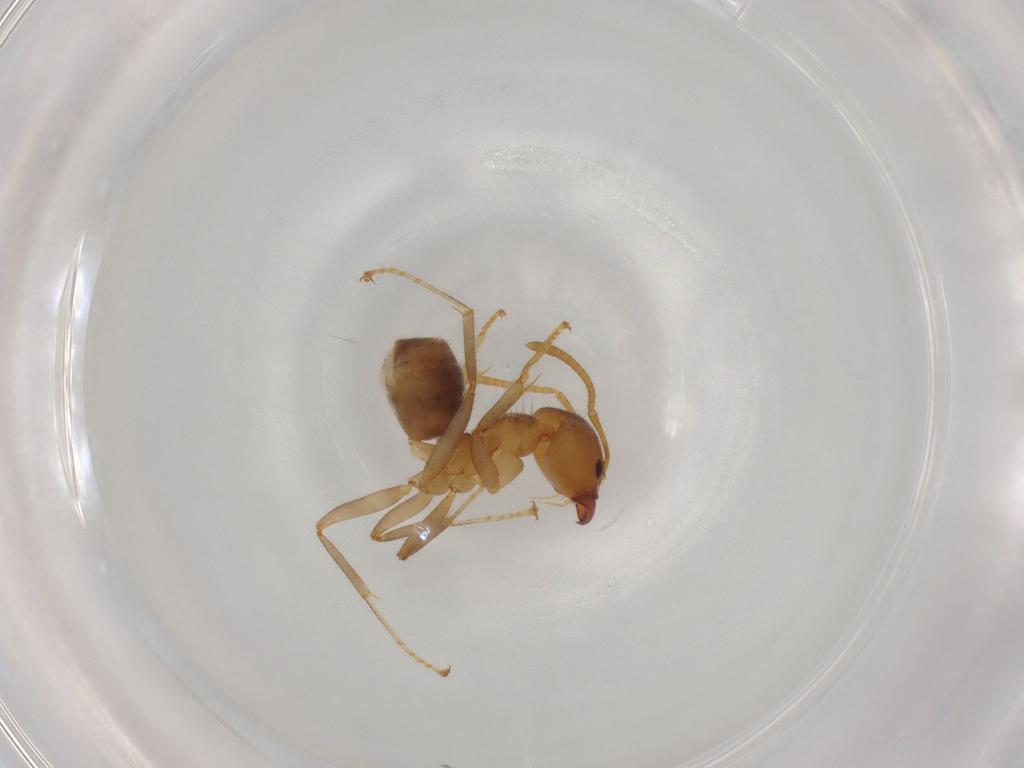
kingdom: Animalia
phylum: Arthropoda
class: Insecta
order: Hymenoptera
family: Formicidae
